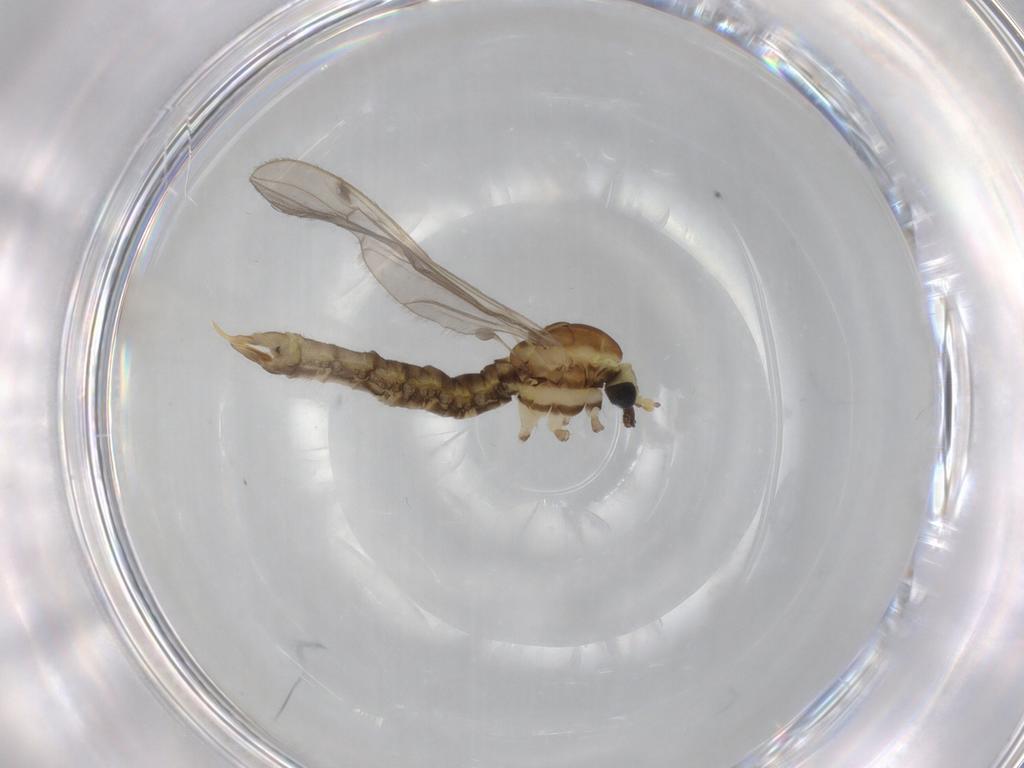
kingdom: Animalia
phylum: Arthropoda
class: Insecta
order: Diptera
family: Limoniidae
